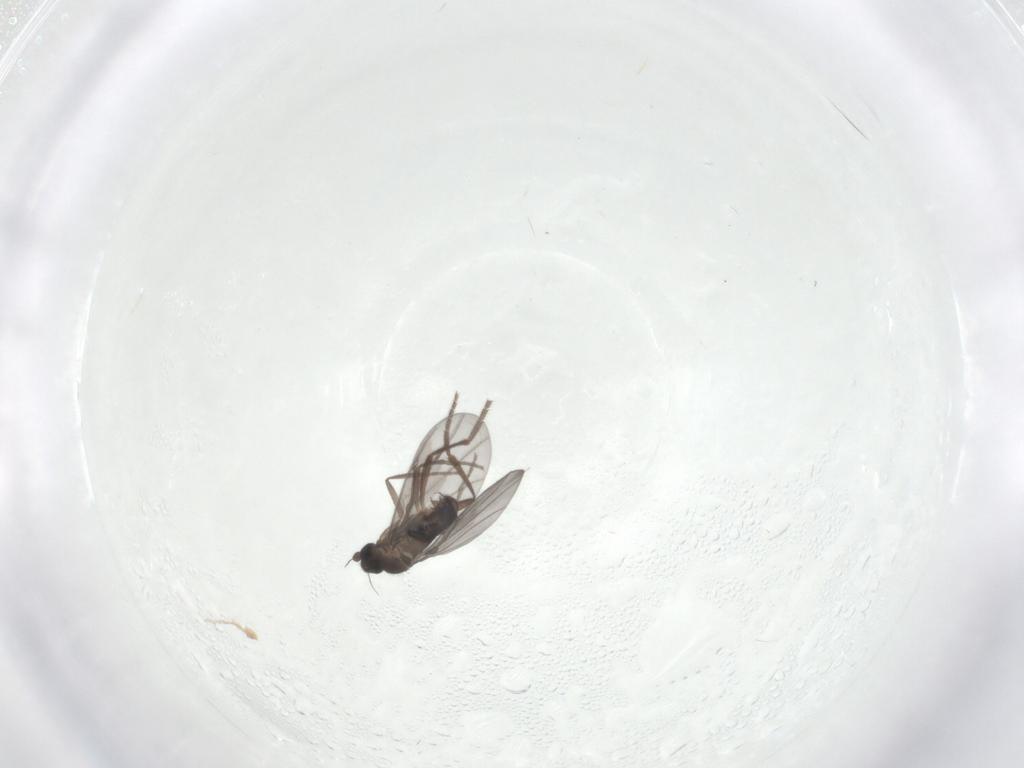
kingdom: Animalia
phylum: Arthropoda
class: Insecta
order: Diptera
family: Phoridae
